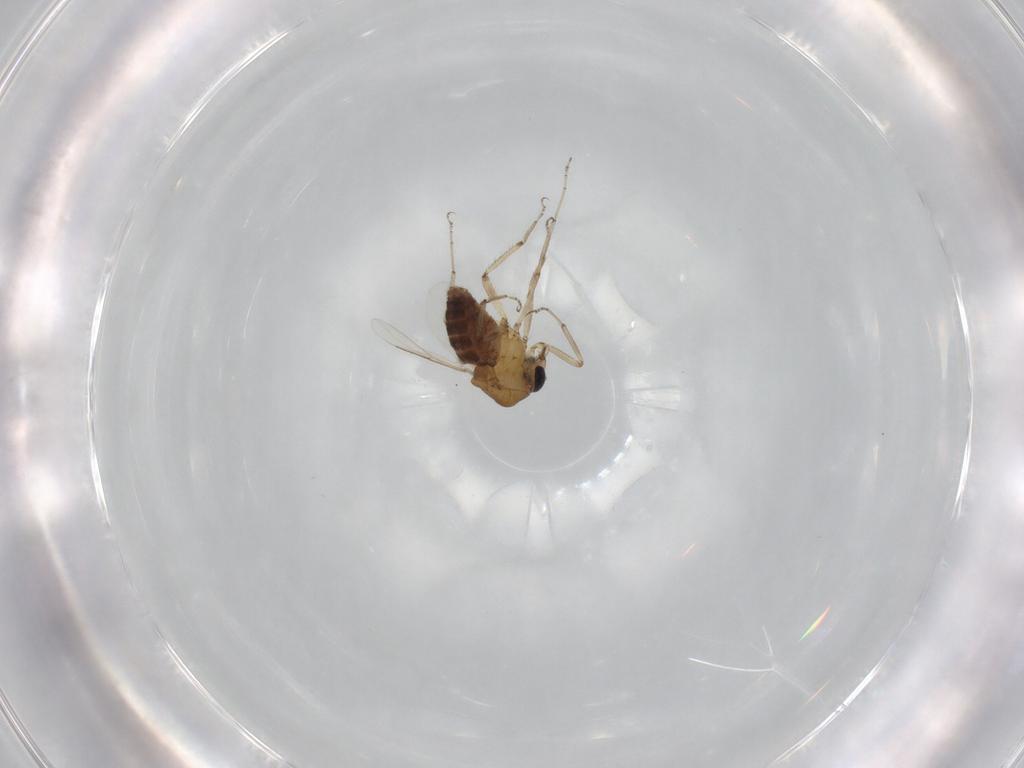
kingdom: Animalia
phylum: Arthropoda
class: Insecta
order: Diptera
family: Ceratopogonidae
